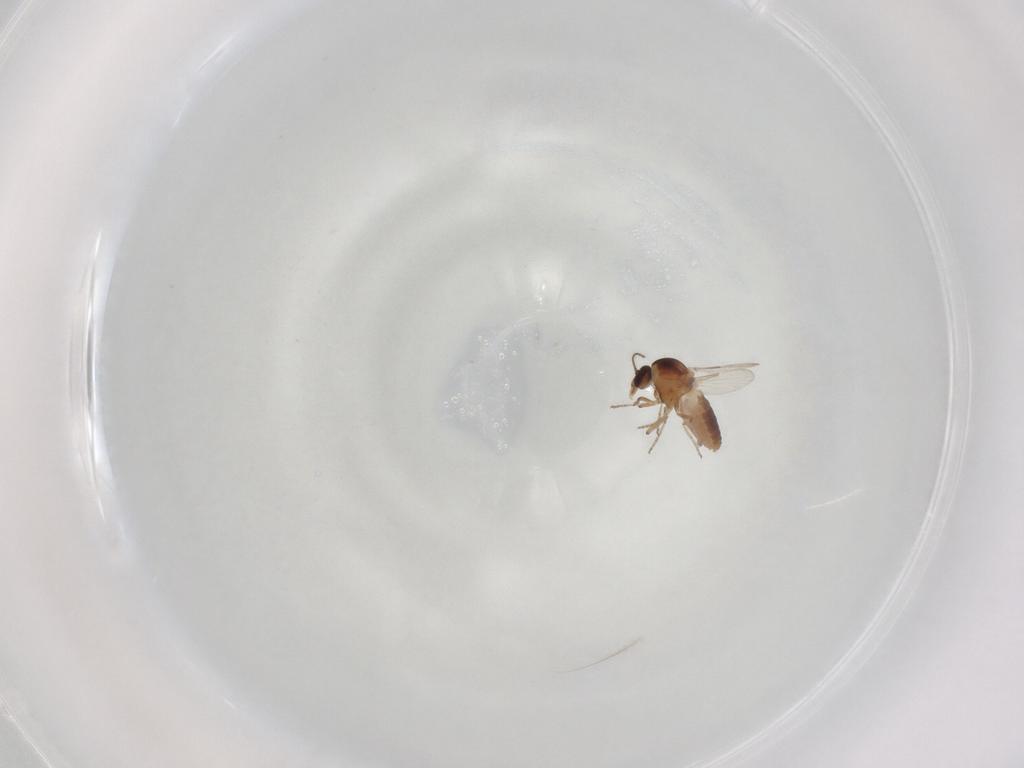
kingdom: Animalia
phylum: Arthropoda
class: Insecta
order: Diptera
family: Ceratopogonidae
